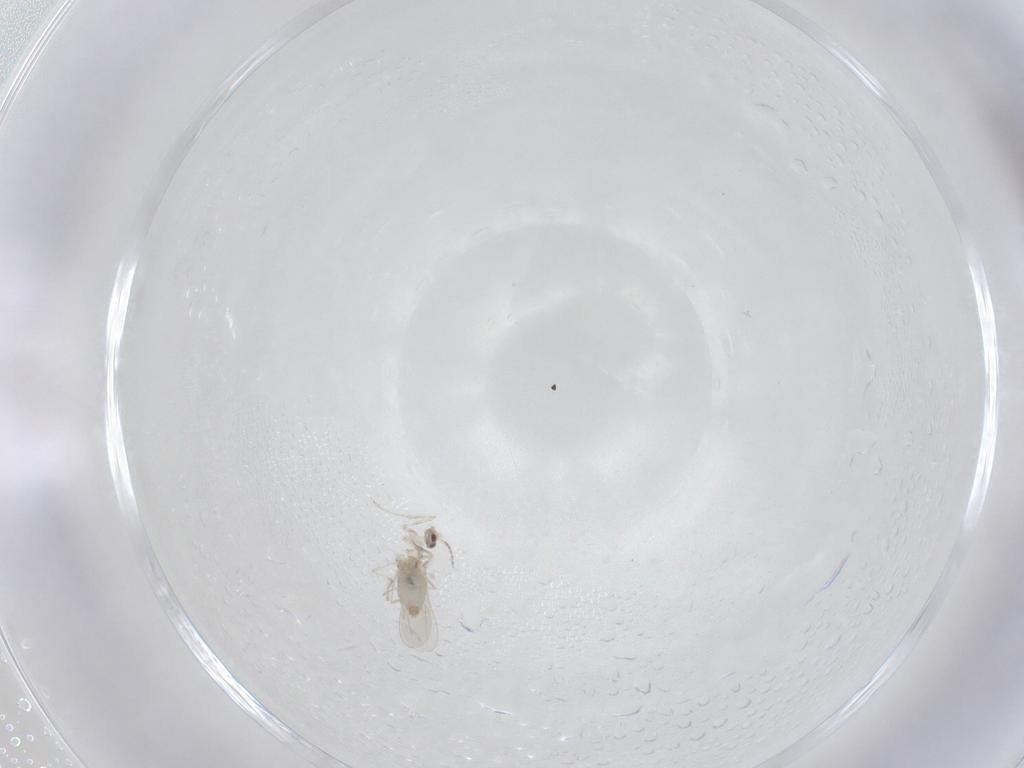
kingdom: Animalia
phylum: Arthropoda
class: Insecta
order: Diptera
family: Cecidomyiidae
